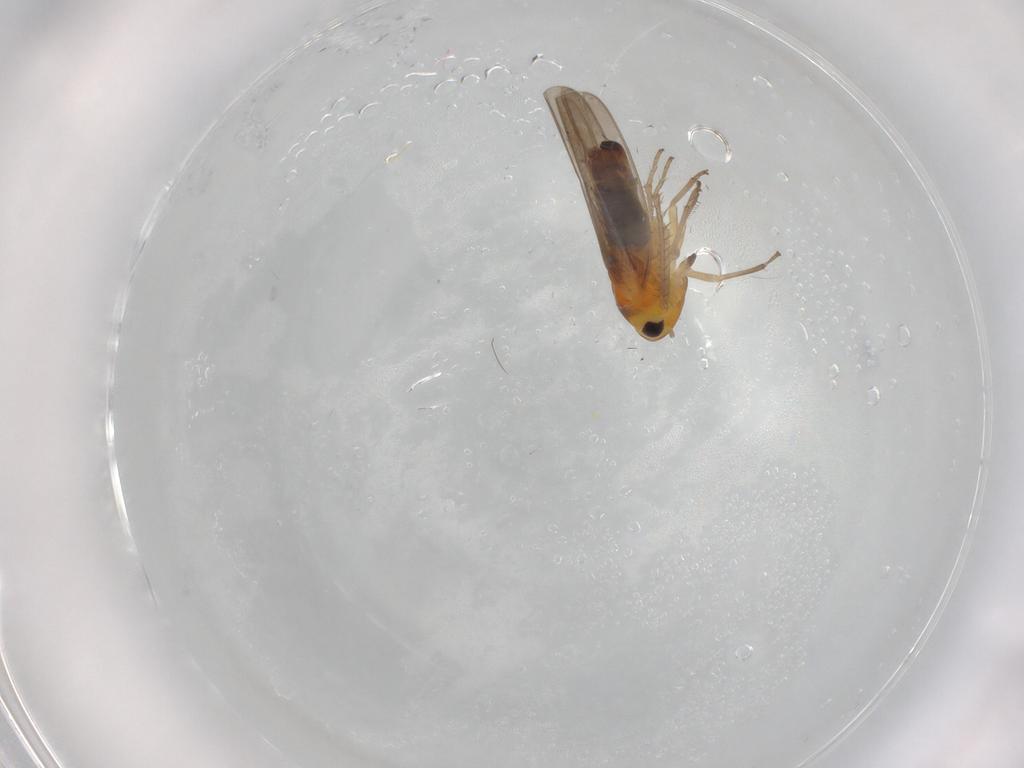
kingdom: Animalia
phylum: Arthropoda
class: Insecta
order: Hemiptera
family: Cicadellidae
